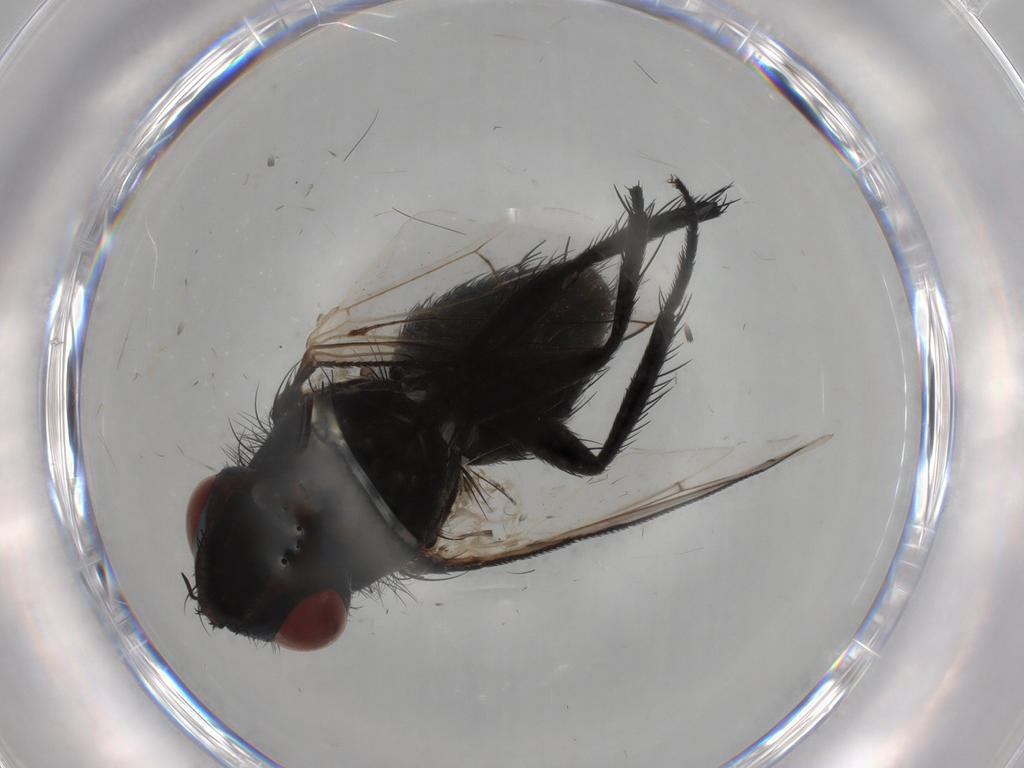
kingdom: Animalia
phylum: Arthropoda
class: Insecta
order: Diptera
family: Tachinidae
